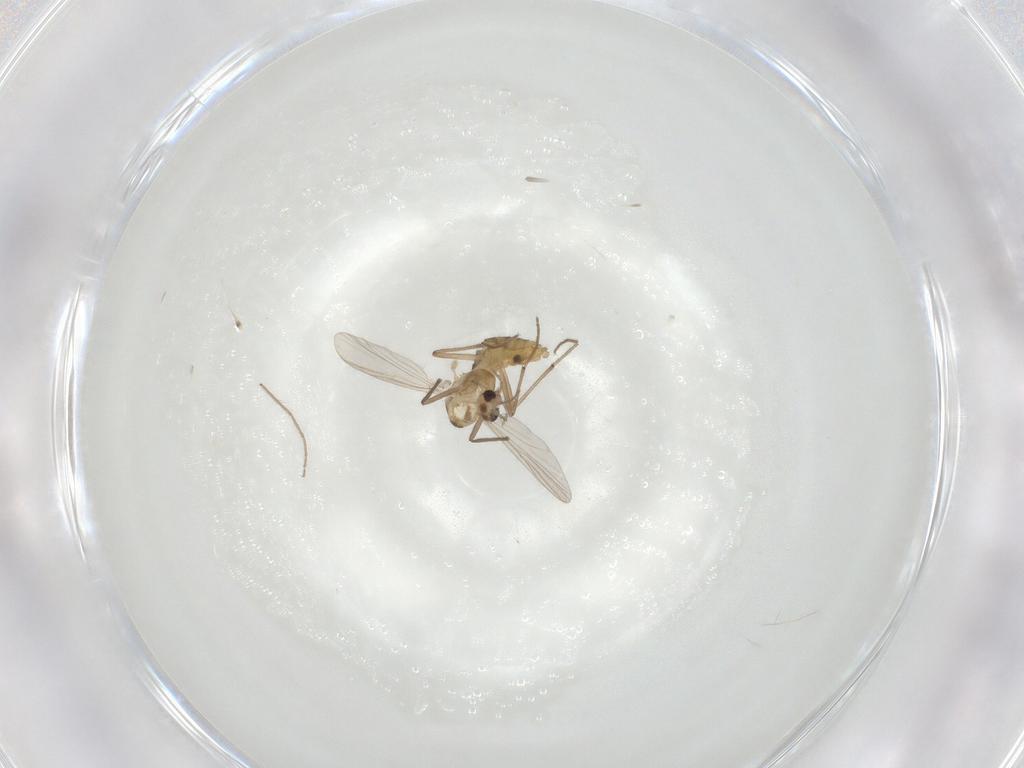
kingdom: Animalia
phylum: Arthropoda
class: Insecta
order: Diptera
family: Chironomidae
